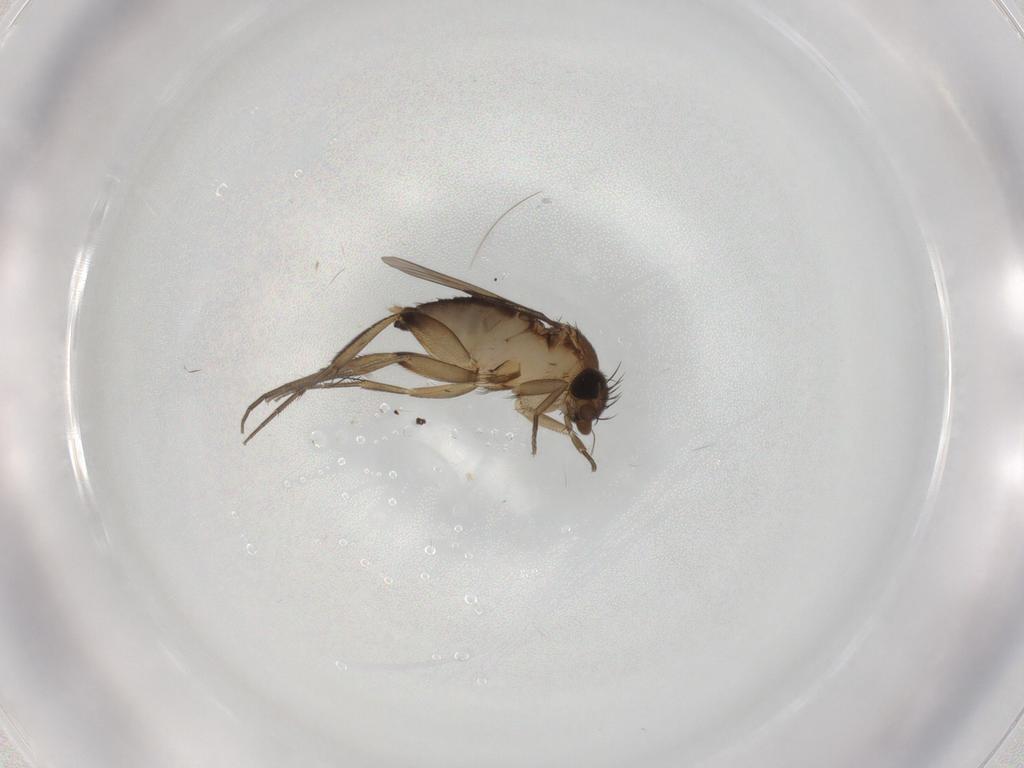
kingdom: Animalia
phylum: Arthropoda
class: Insecta
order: Diptera
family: Phoridae
